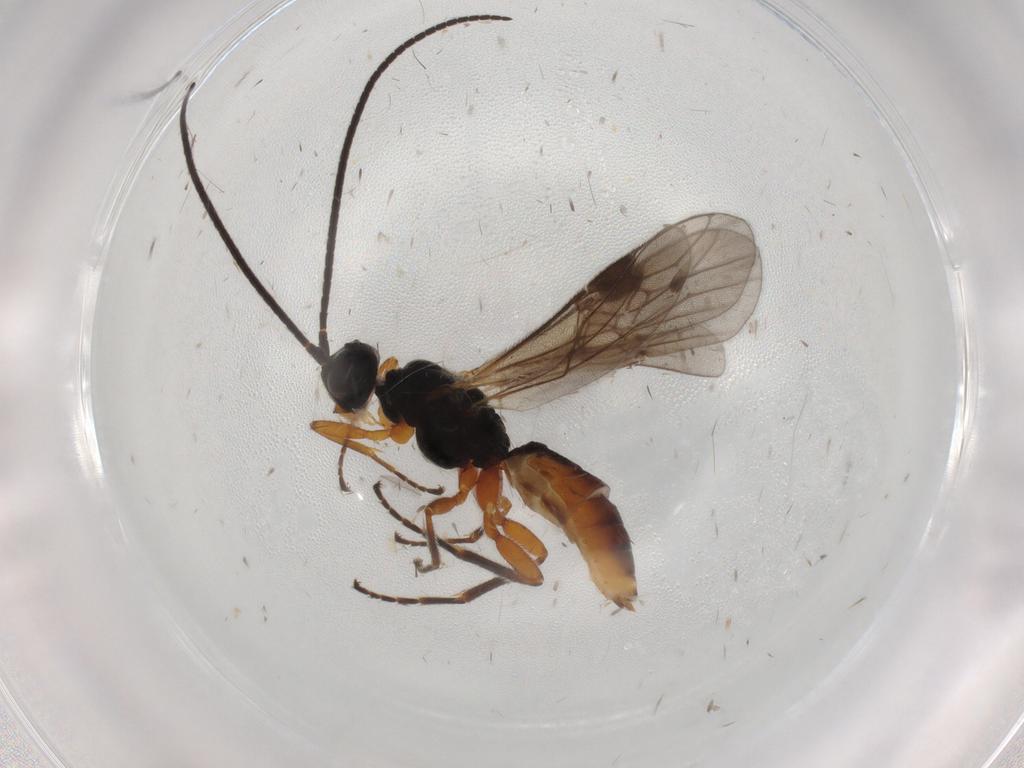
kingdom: Animalia
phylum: Arthropoda
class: Insecta
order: Hymenoptera
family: Braconidae
